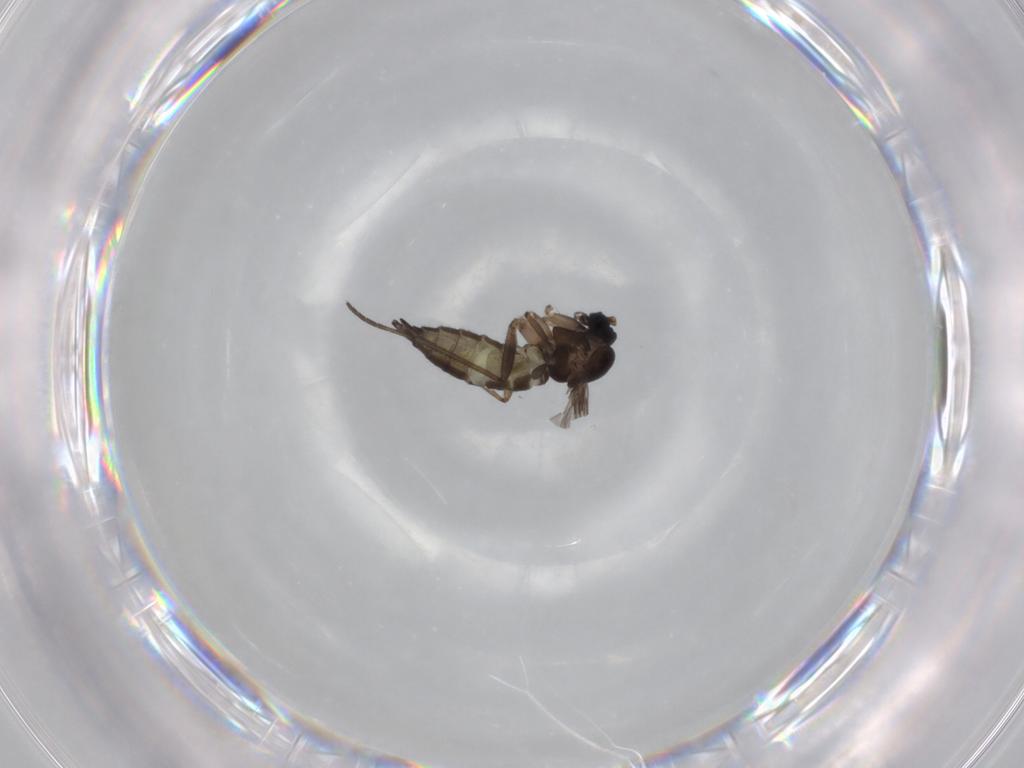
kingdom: Animalia
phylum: Arthropoda
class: Insecta
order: Diptera
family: Sciaridae
